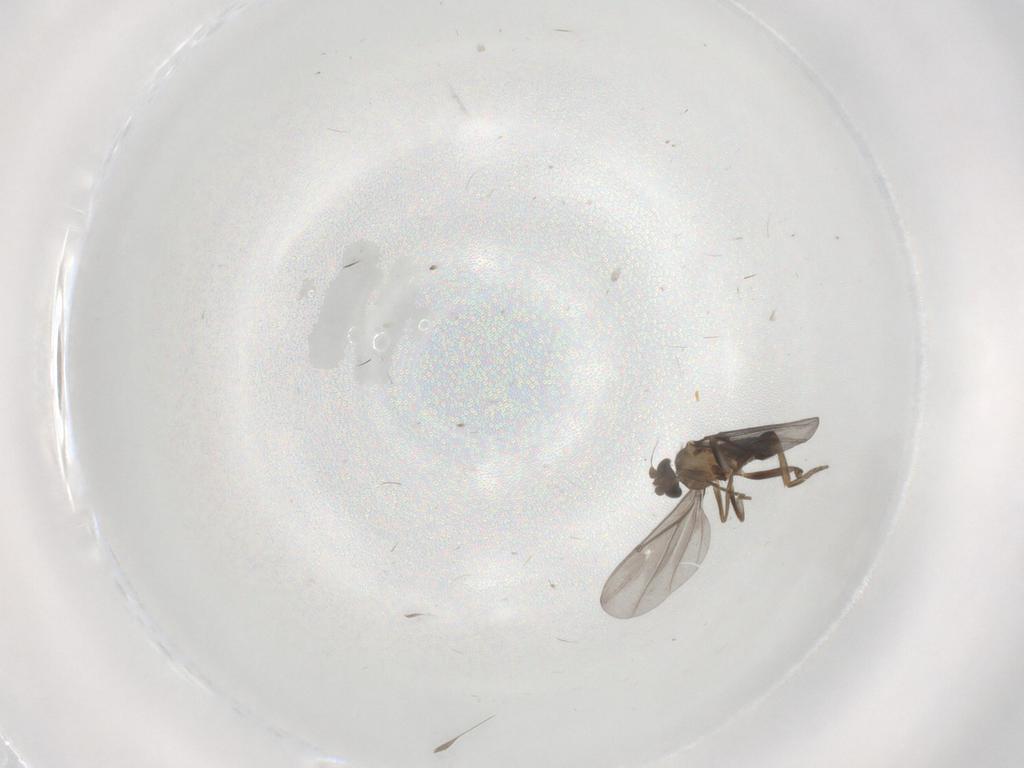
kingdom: Animalia
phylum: Arthropoda
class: Insecta
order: Diptera
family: Phoridae
